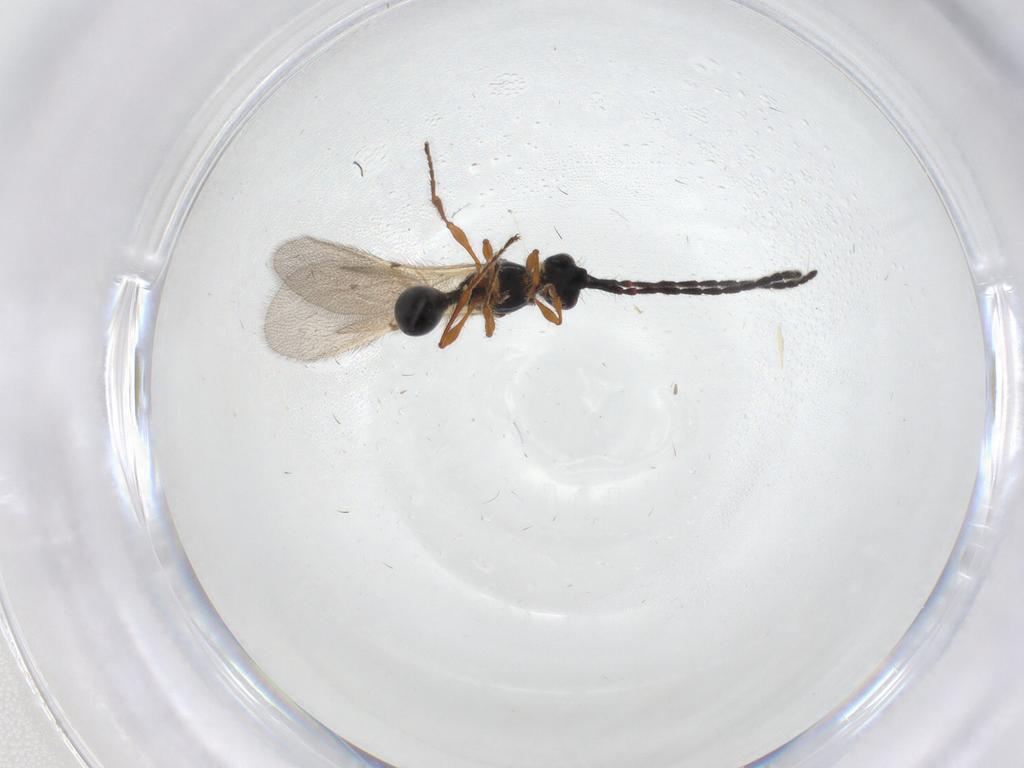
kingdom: Animalia
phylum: Arthropoda
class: Insecta
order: Hymenoptera
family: Diapriidae
